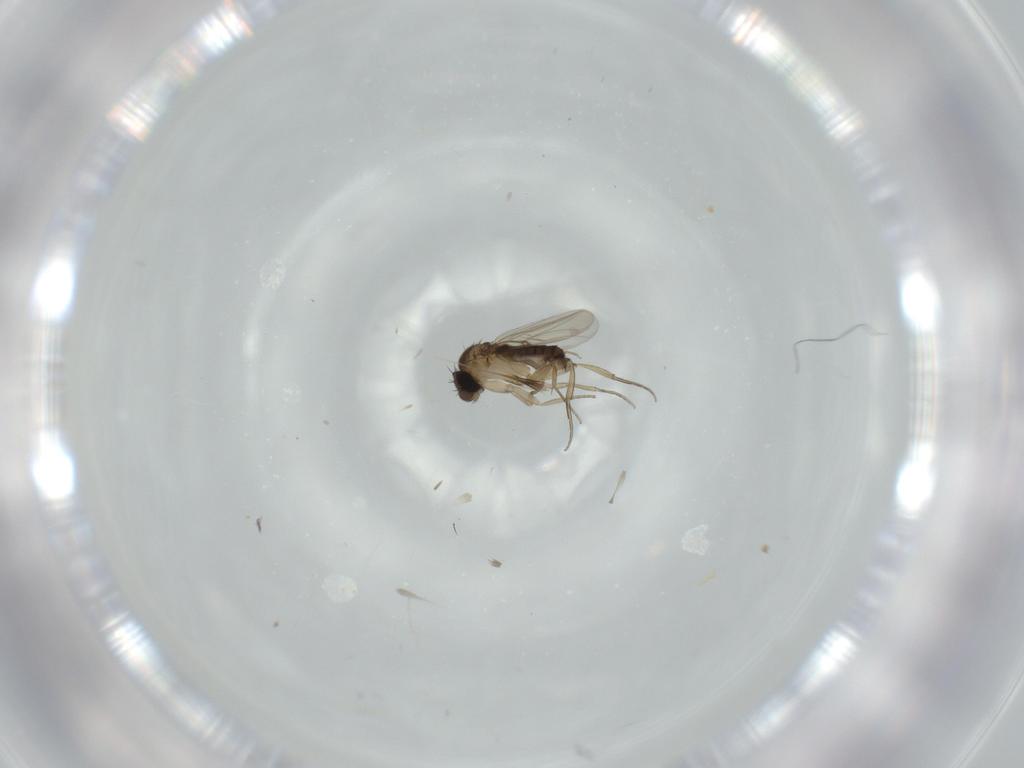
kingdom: Animalia
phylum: Arthropoda
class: Insecta
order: Diptera
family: Phoridae
